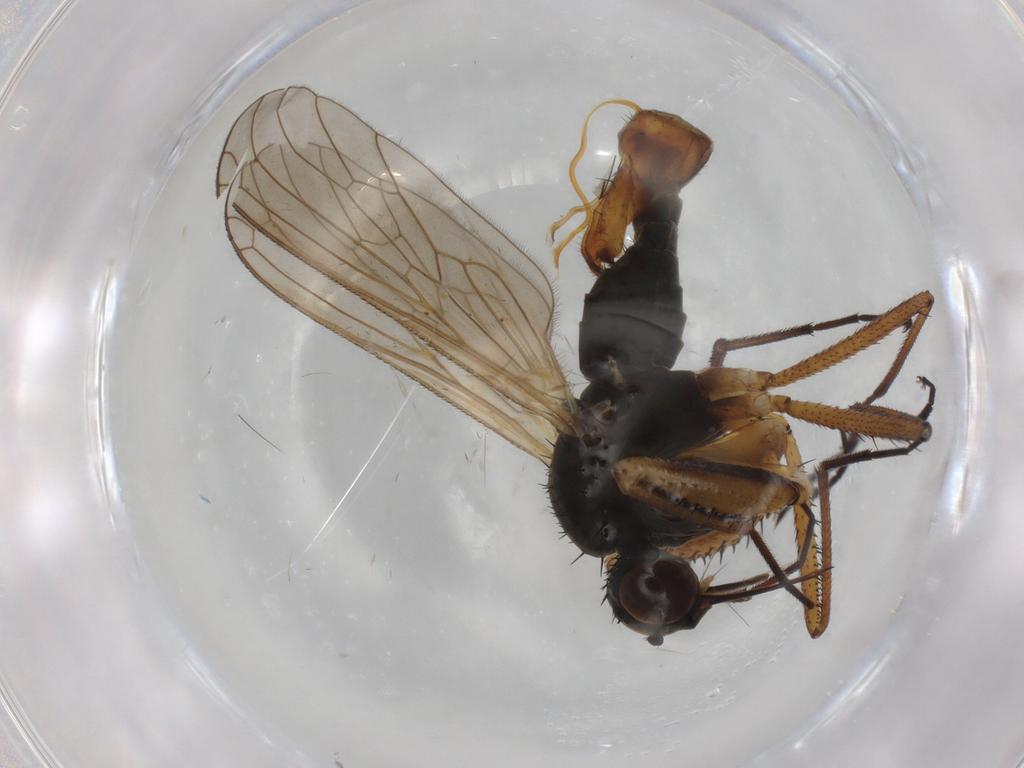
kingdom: Animalia
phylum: Arthropoda
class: Insecta
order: Diptera
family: Empididae
